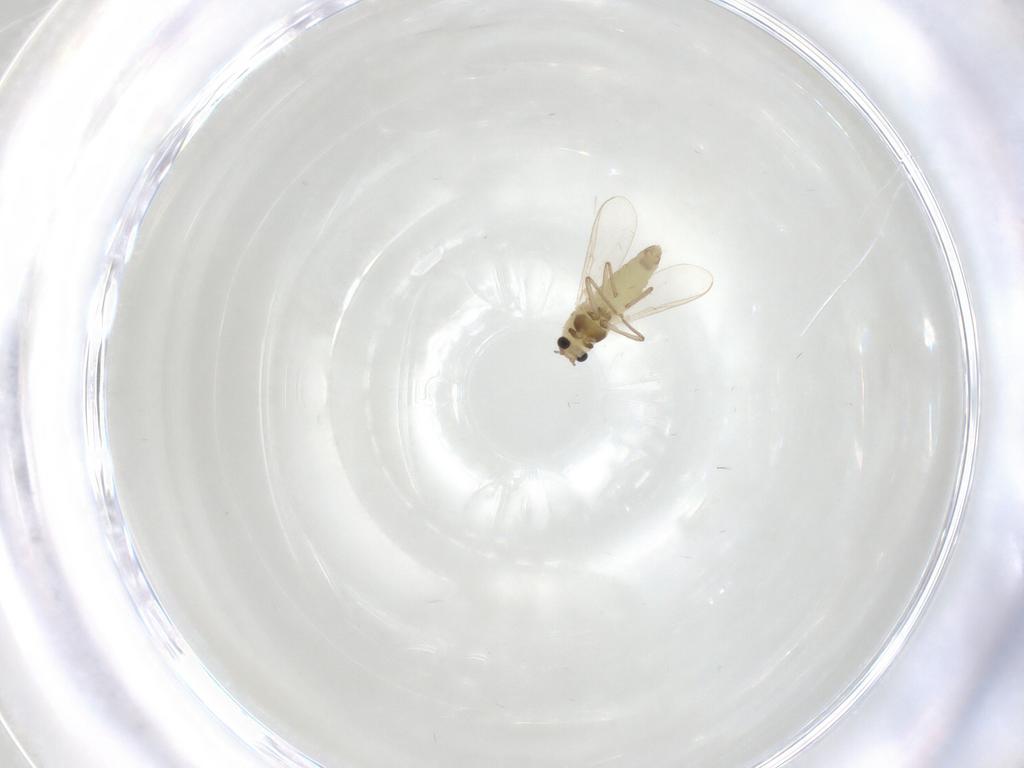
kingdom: Animalia
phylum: Arthropoda
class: Insecta
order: Diptera
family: Chironomidae
